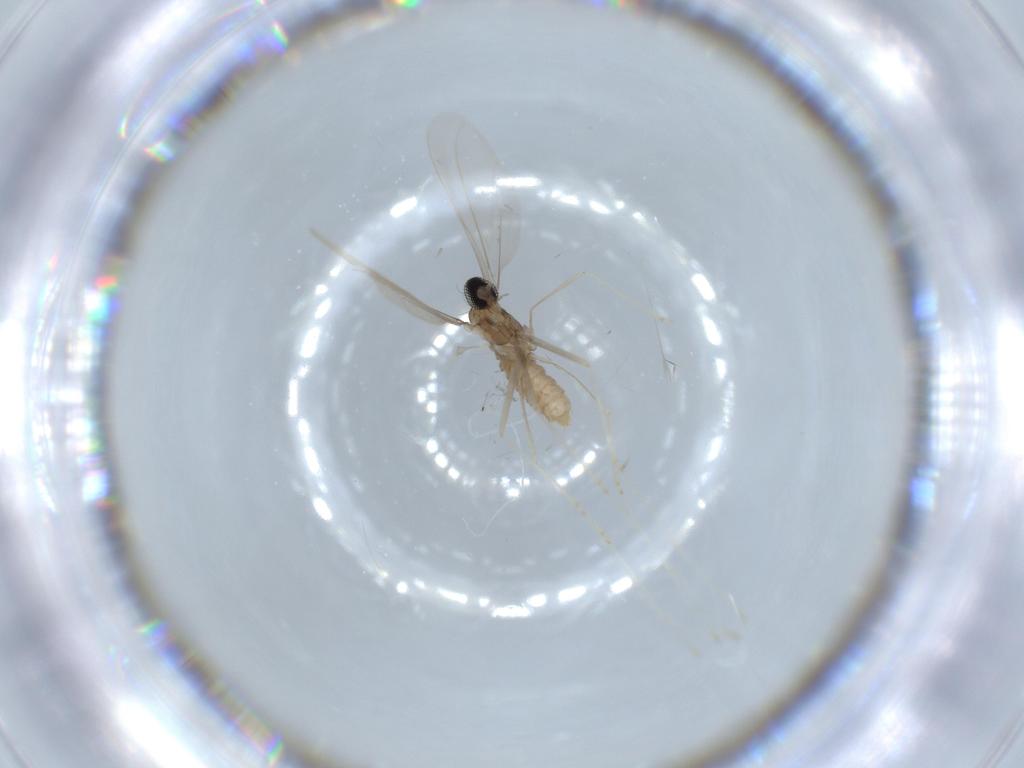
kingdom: Animalia
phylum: Arthropoda
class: Insecta
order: Diptera
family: Cecidomyiidae
